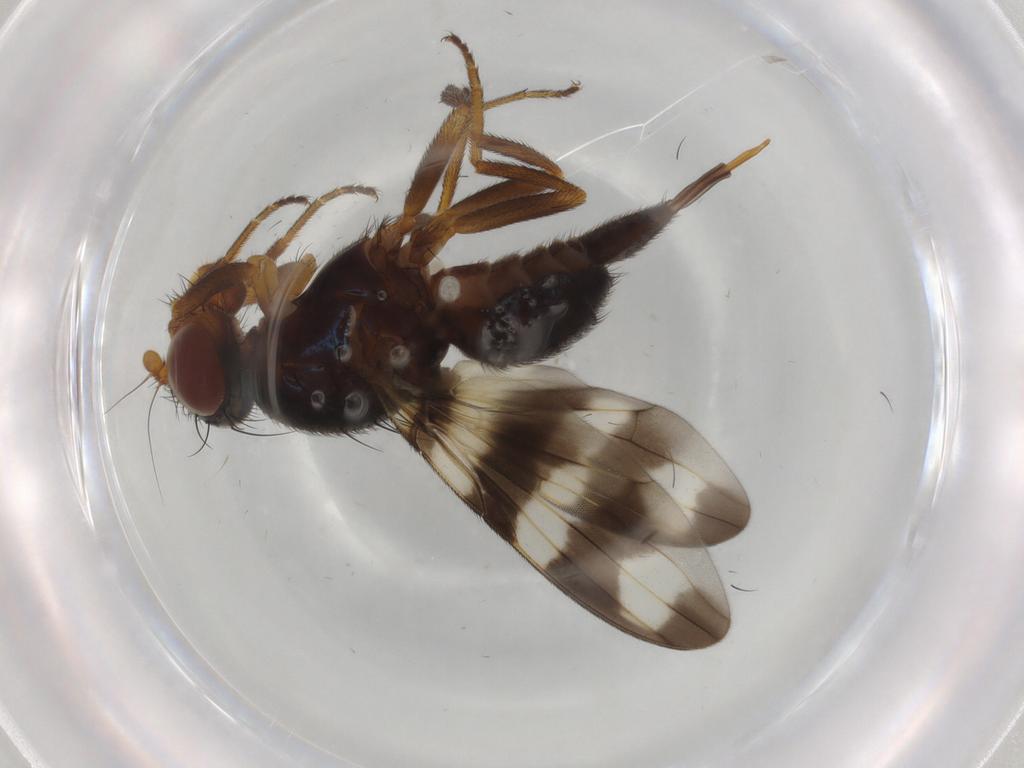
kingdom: Animalia
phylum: Arthropoda
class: Insecta
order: Diptera
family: Ulidiidae
